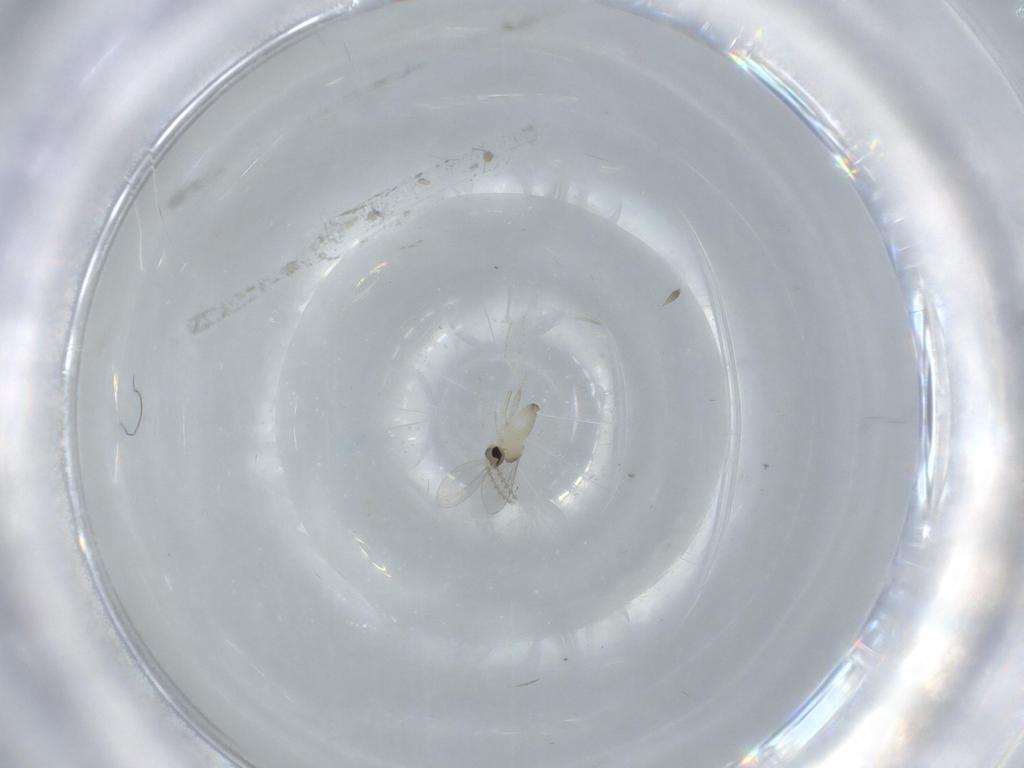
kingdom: Animalia
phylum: Arthropoda
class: Insecta
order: Diptera
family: Cecidomyiidae
